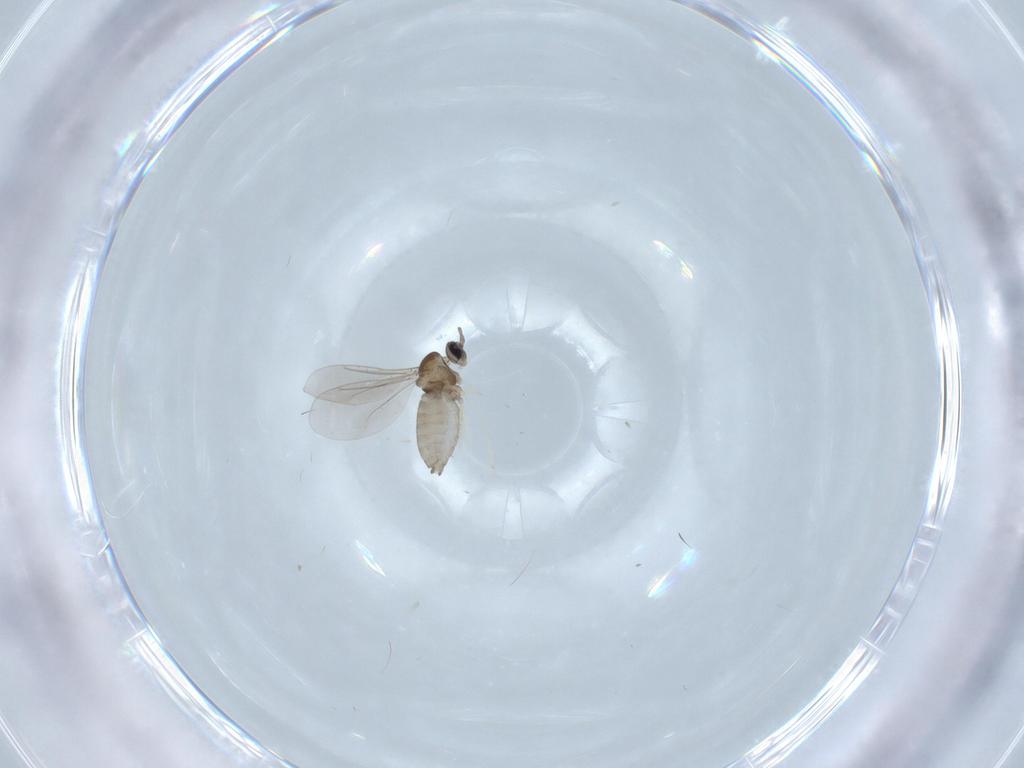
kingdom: Animalia
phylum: Arthropoda
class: Insecta
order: Diptera
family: Cecidomyiidae
